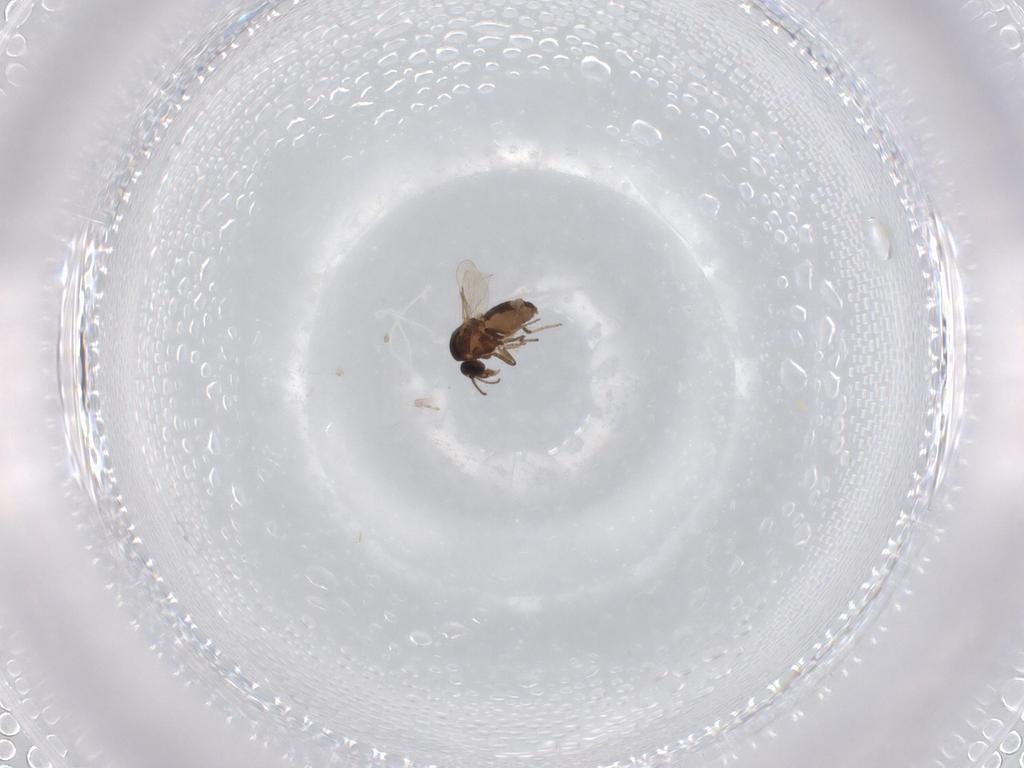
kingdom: Animalia
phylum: Arthropoda
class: Insecta
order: Diptera
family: Ceratopogonidae
